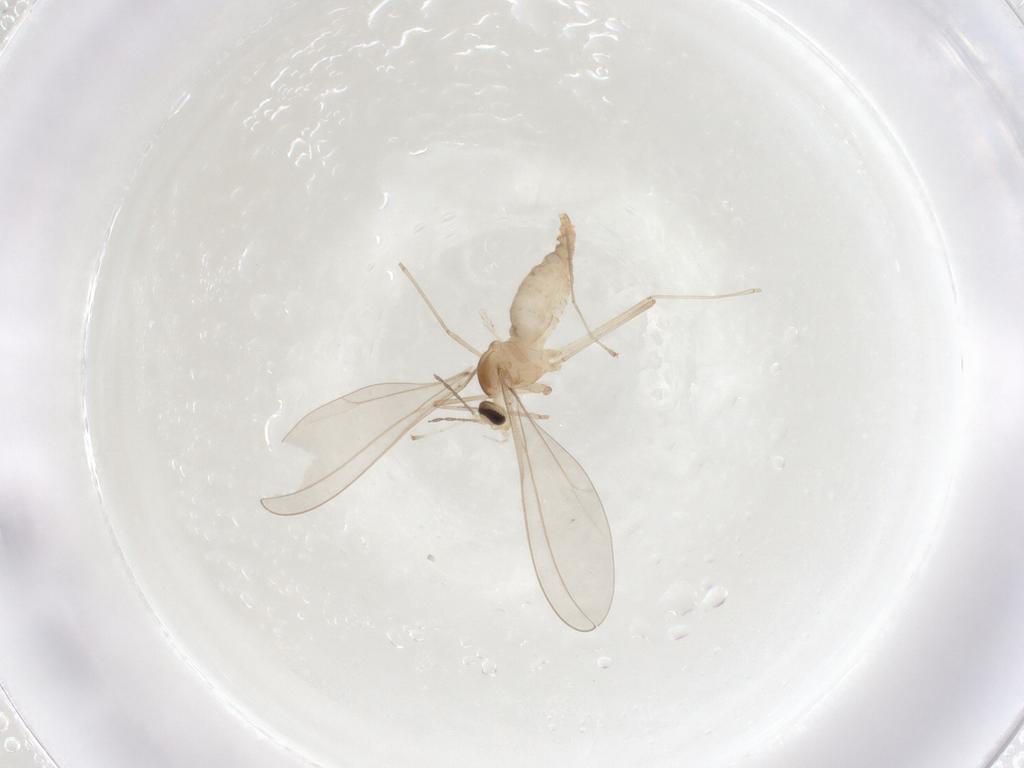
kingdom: Animalia
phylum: Arthropoda
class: Insecta
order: Diptera
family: Cecidomyiidae
